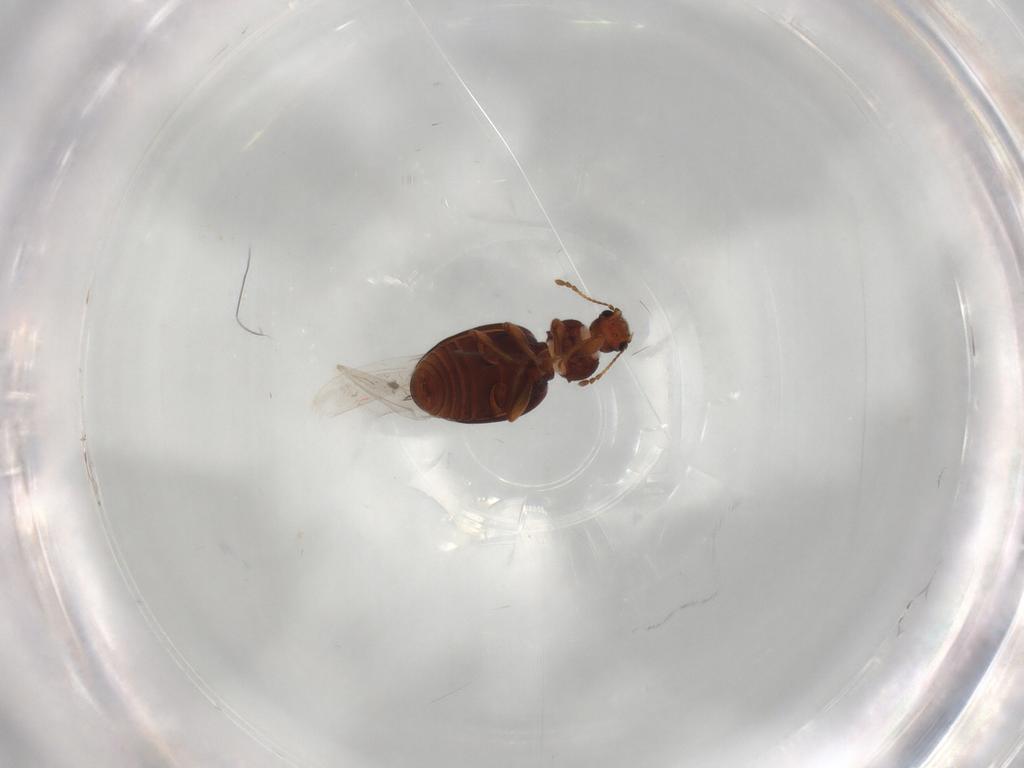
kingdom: Animalia
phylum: Arthropoda
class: Insecta
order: Coleoptera
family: Latridiidae
